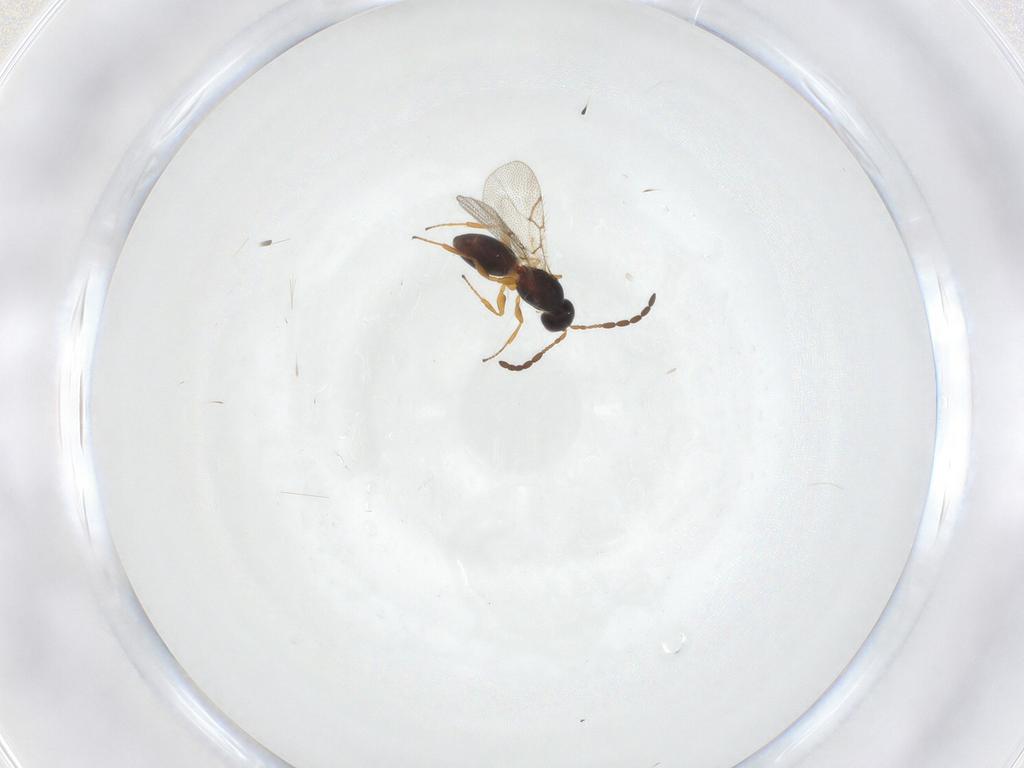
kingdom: Animalia
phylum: Arthropoda
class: Insecta
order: Hymenoptera
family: Figitidae
